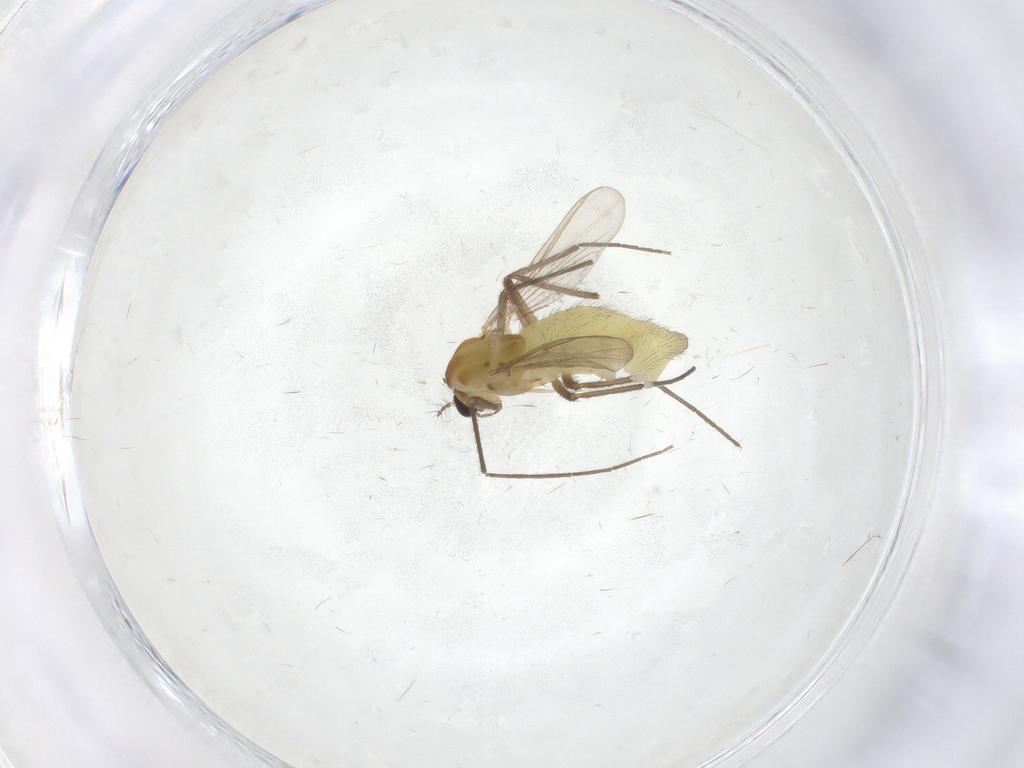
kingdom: Animalia
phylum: Arthropoda
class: Insecta
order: Diptera
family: Chironomidae
